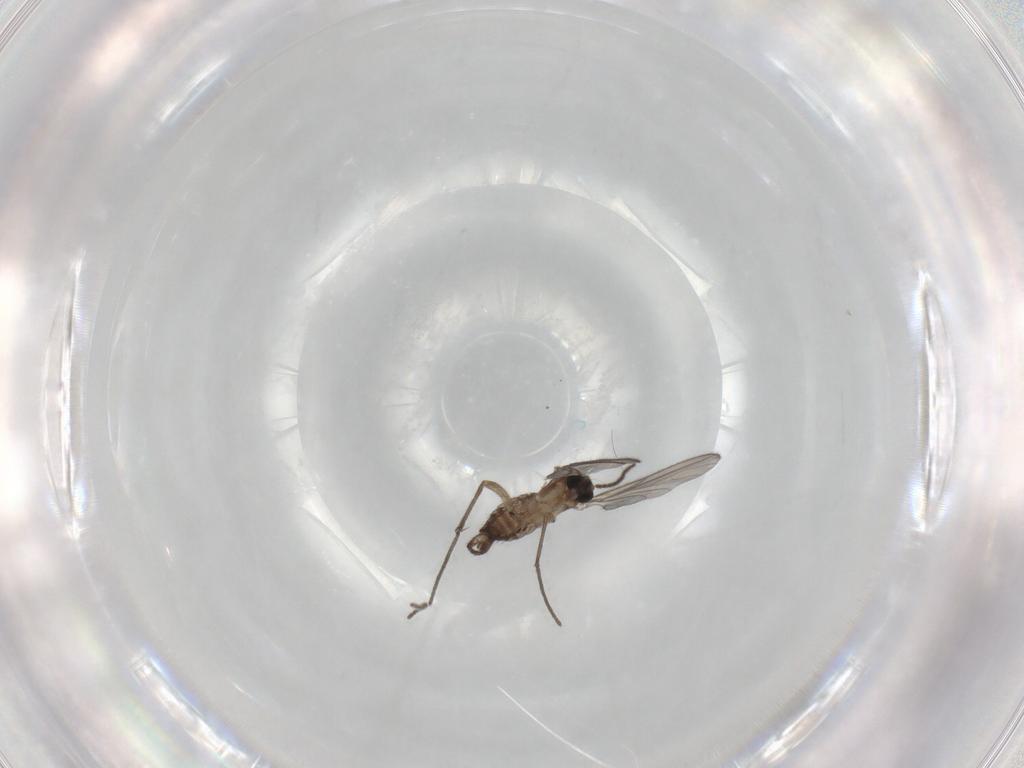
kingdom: Animalia
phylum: Arthropoda
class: Insecta
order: Diptera
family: Sciaridae
